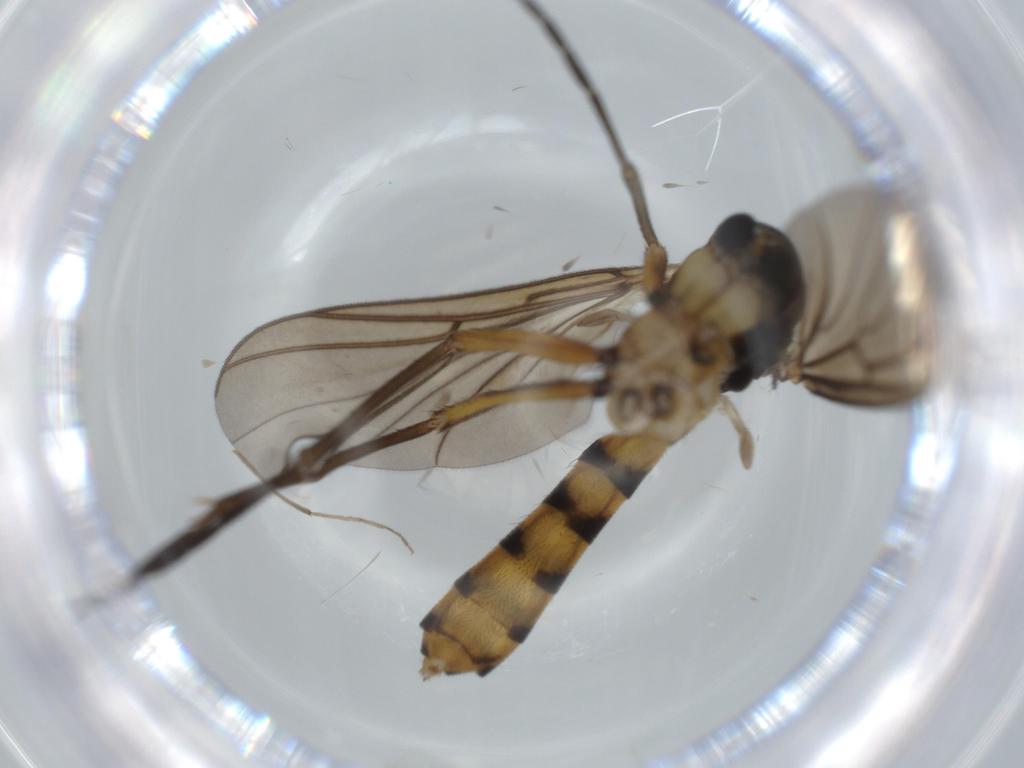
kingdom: Animalia
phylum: Arthropoda
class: Insecta
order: Diptera
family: Sciaridae
